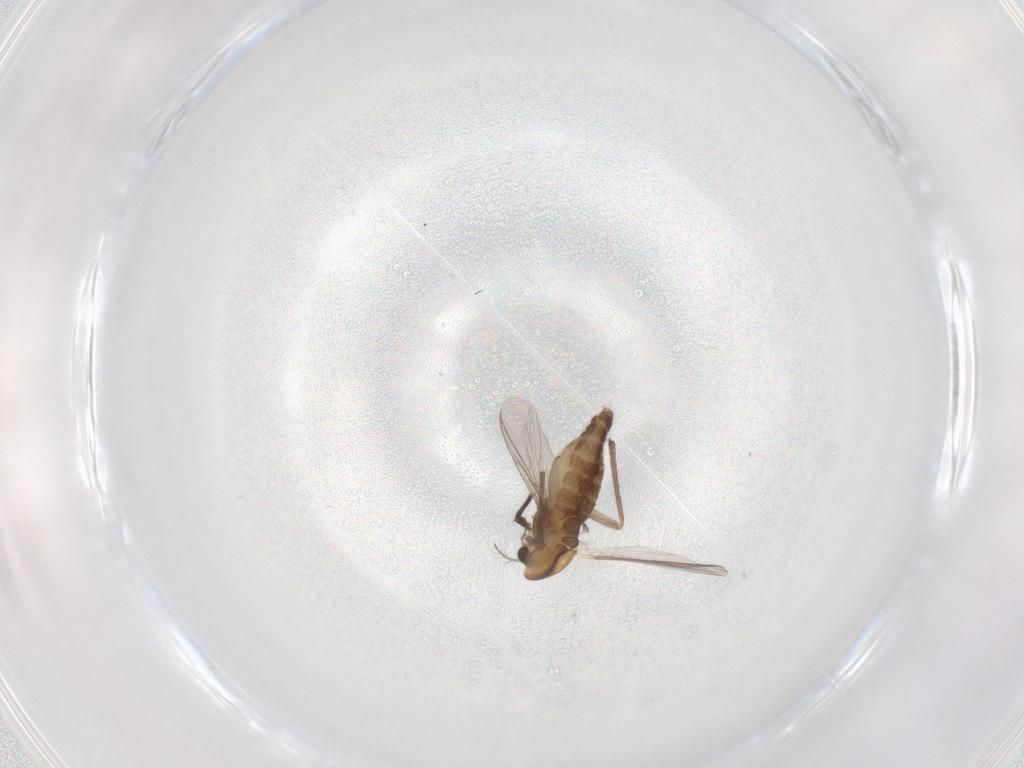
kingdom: Animalia
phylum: Arthropoda
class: Insecta
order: Diptera
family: Chironomidae
